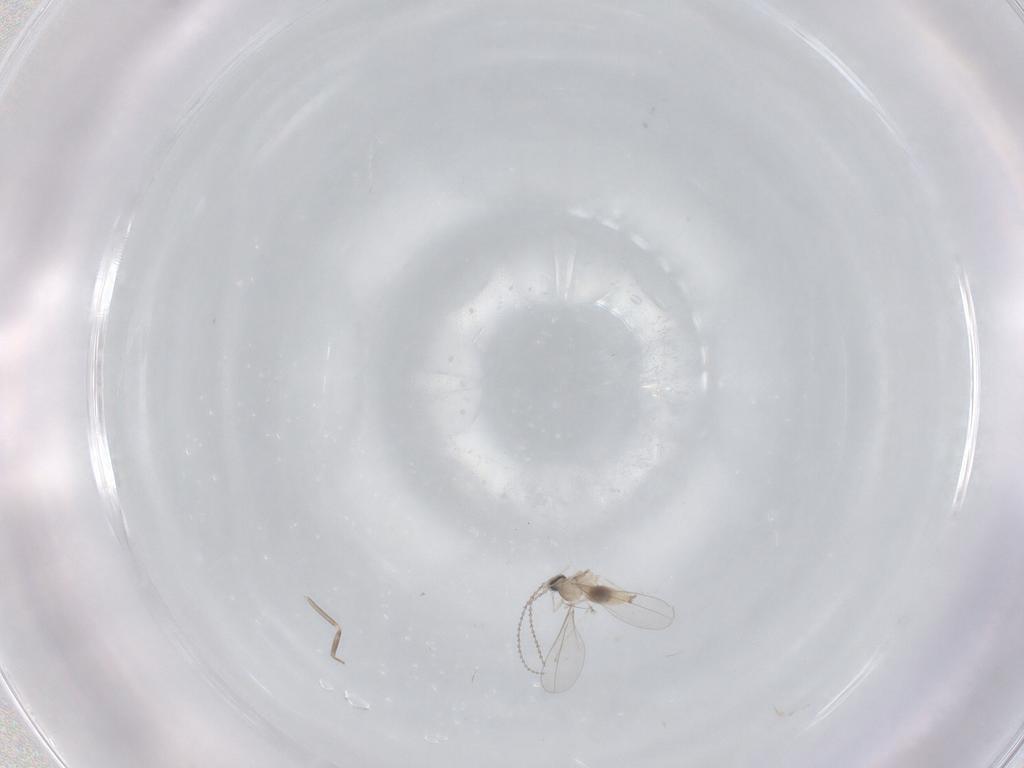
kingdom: Animalia
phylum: Arthropoda
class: Insecta
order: Diptera
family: Cecidomyiidae
